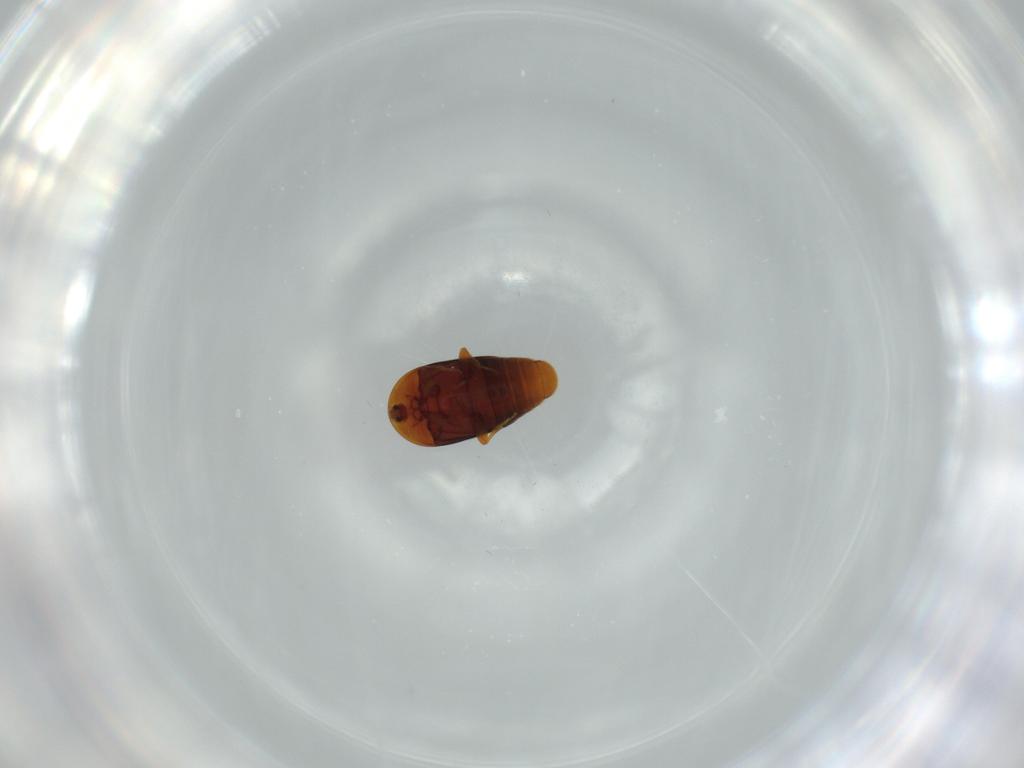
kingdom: Animalia
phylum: Arthropoda
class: Insecta
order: Coleoptera
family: Corylophidae
